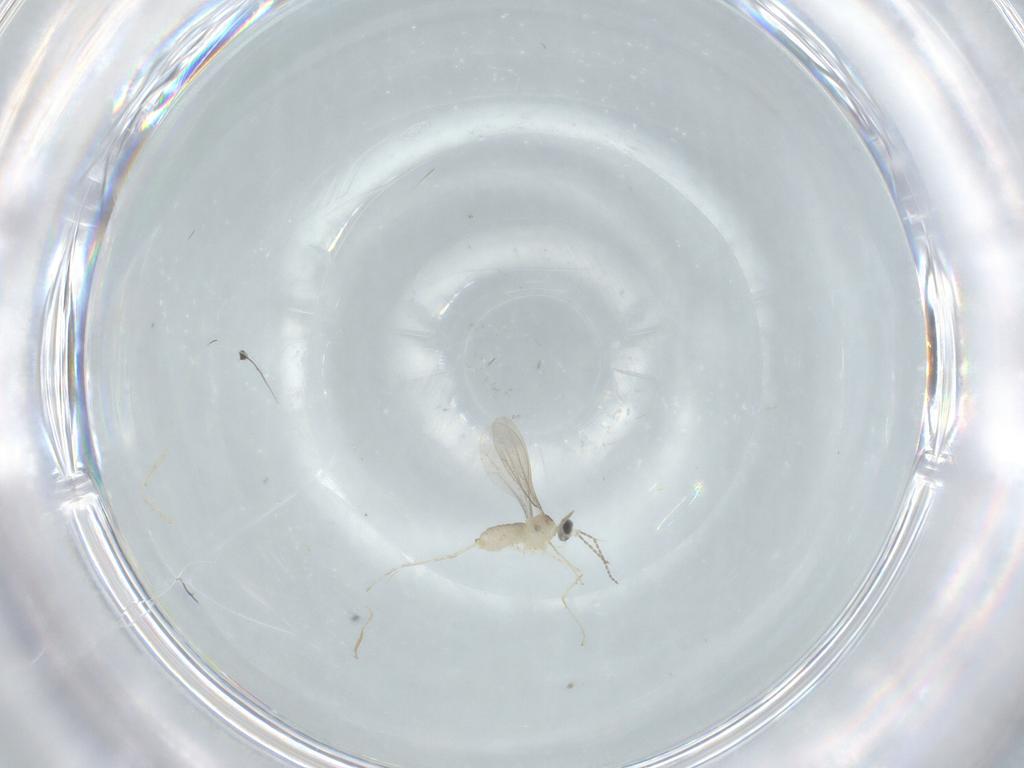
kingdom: Animalia
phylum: Arthropoda
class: Insecta
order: Diptera
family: Cecidomyiidae
